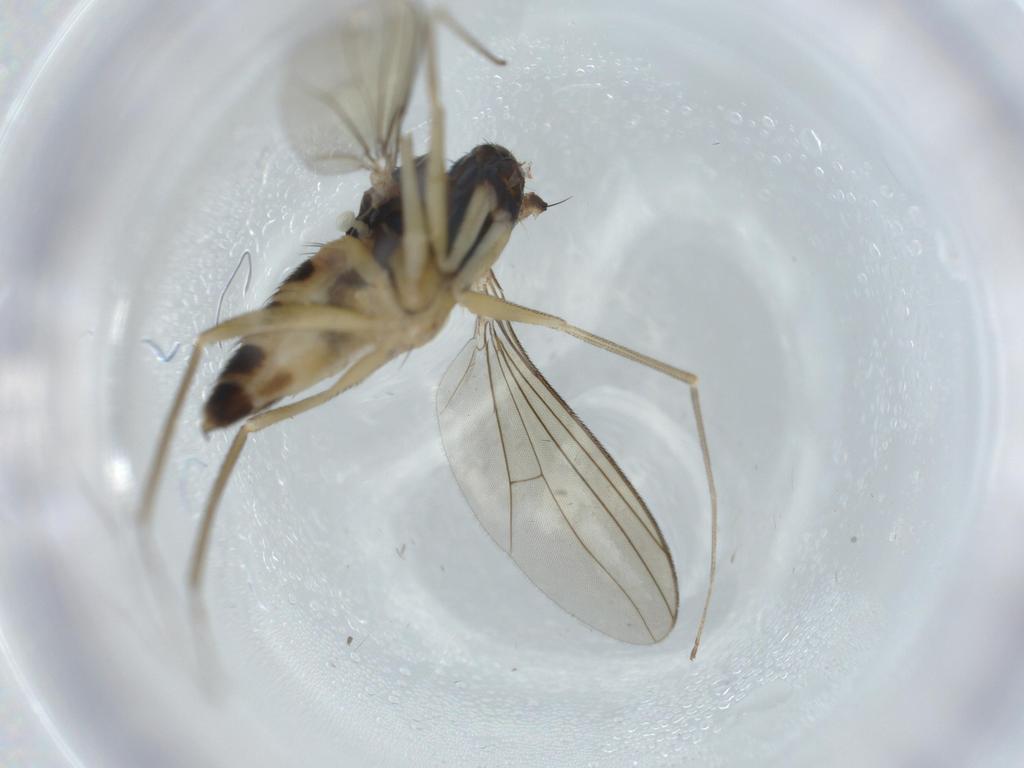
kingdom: Animalia
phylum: Arthropoda
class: Insecta
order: Diptera
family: Dolichopodidae
